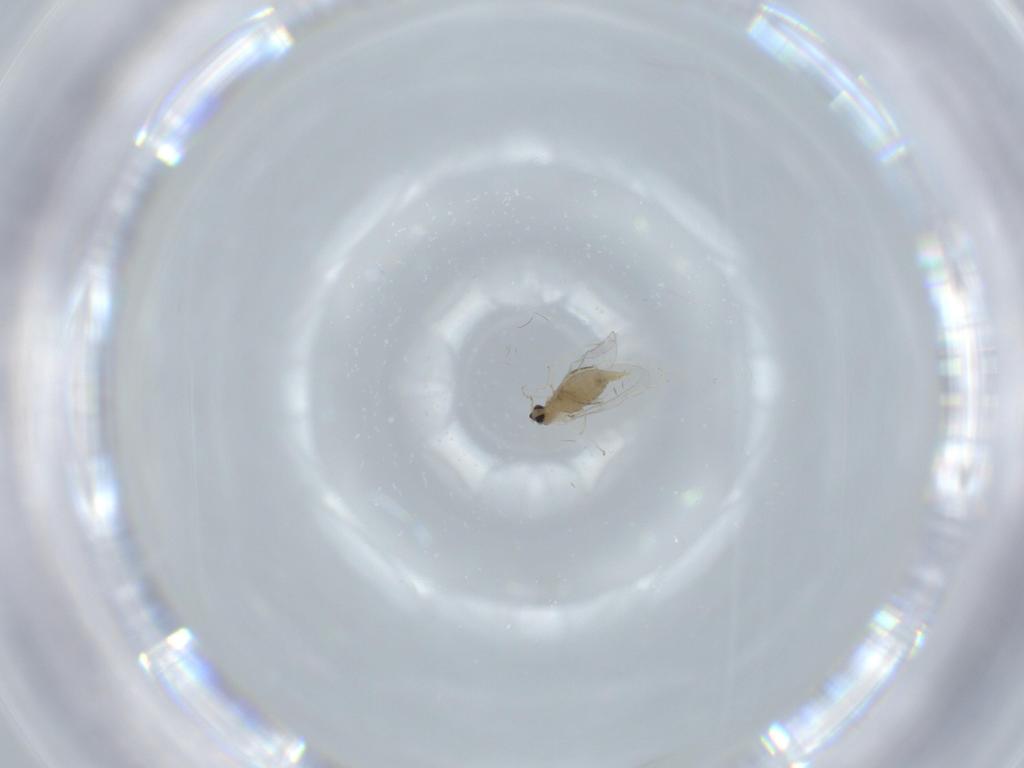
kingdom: Animalia
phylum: Arthropoda
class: Insecta
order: Diptera
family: Cecidomyiidae
